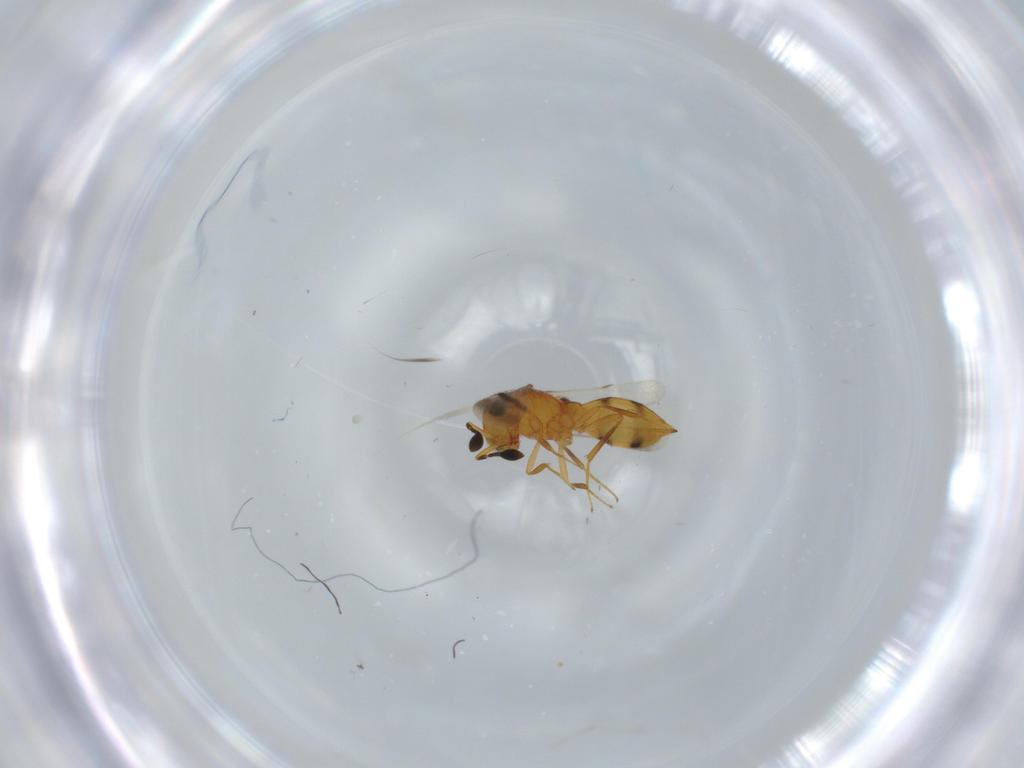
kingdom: Animalia
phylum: Arthropoda
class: Insecta
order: Hymenoptera
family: Scelionidae
